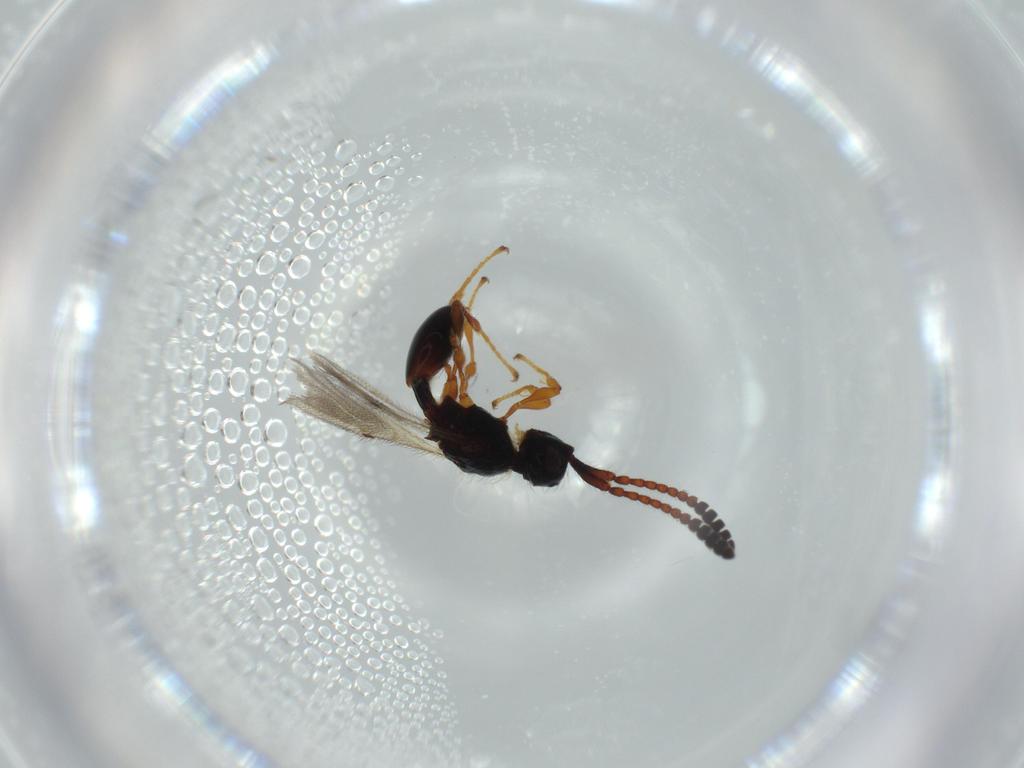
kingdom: Animalia
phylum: Arthropoda
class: Insecta
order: Hymenoptera
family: Diapriidae
